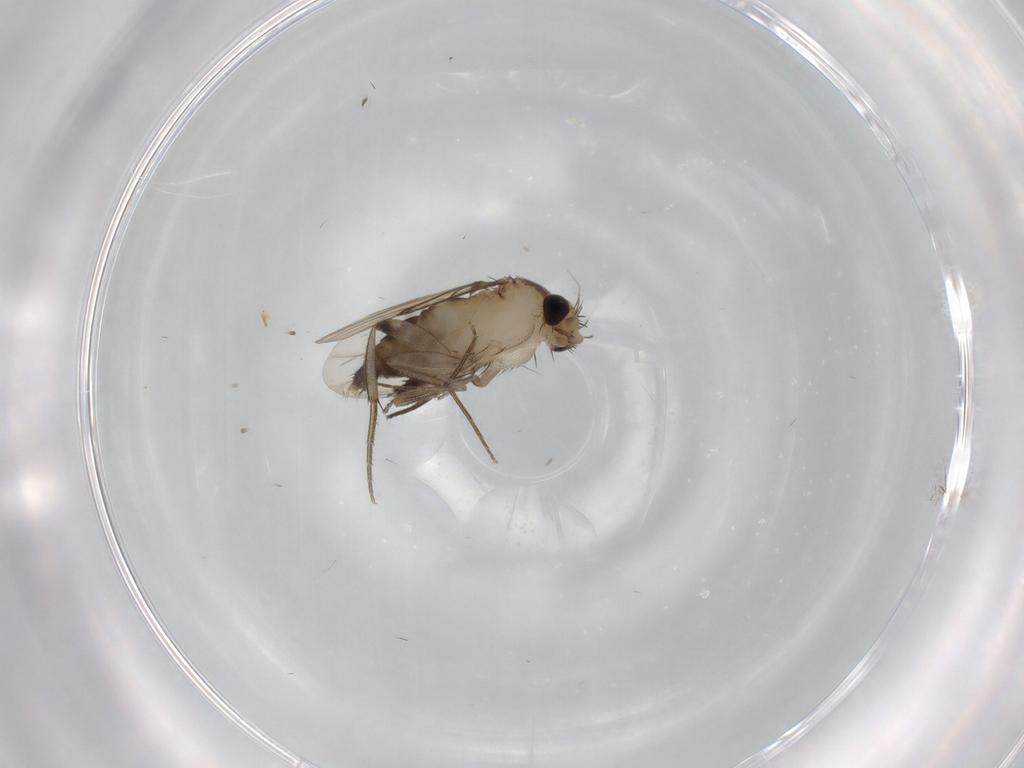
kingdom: Animalia
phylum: Arthropoda
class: Insecta
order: Diptera
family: Phoridae
